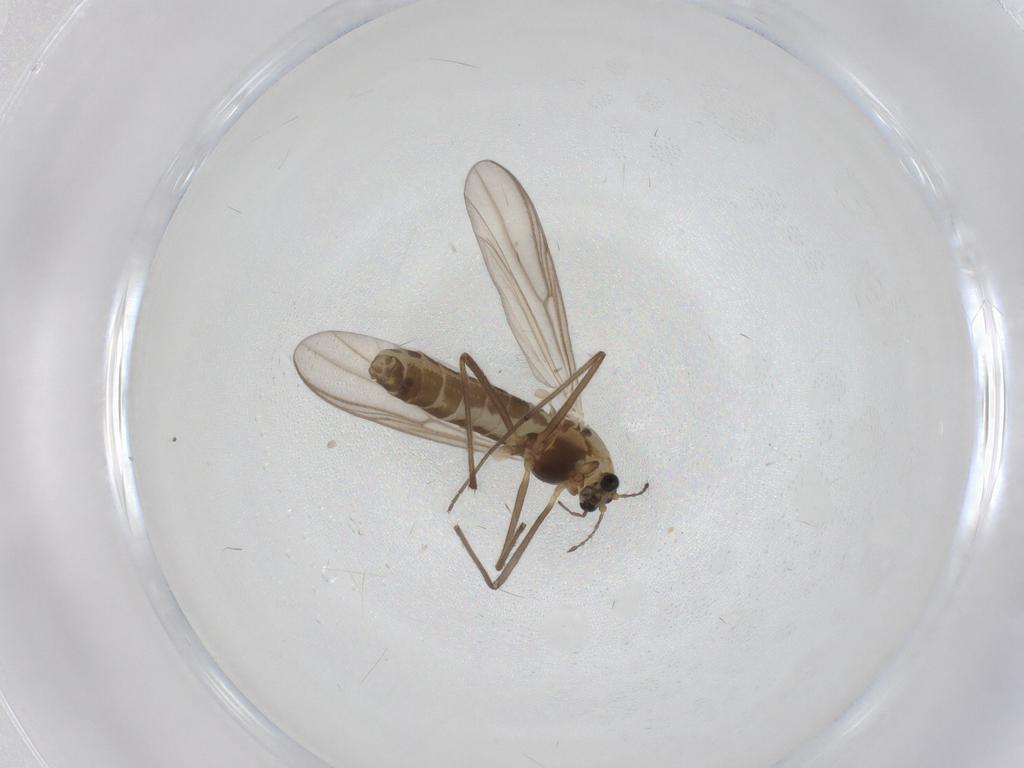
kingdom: Animalia
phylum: Arthropoda
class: Insecta
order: Diptera
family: Chironomidae
